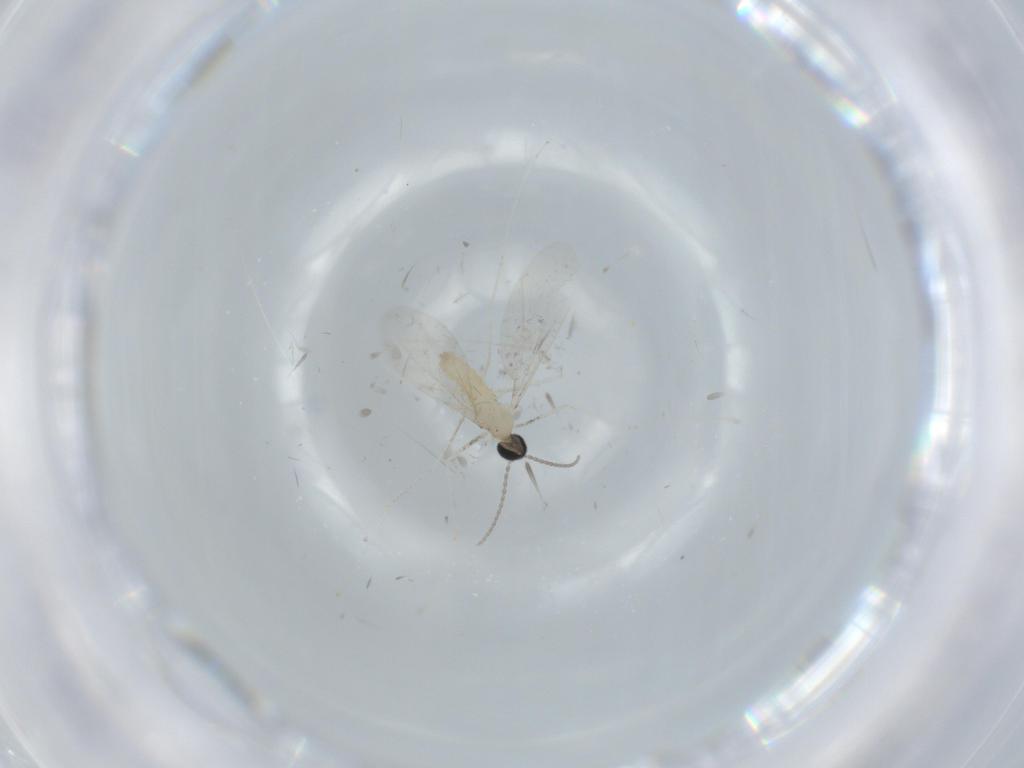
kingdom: Animalia
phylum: Arthropoda
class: Insecta
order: Diptera
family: Cecidomyiidae
